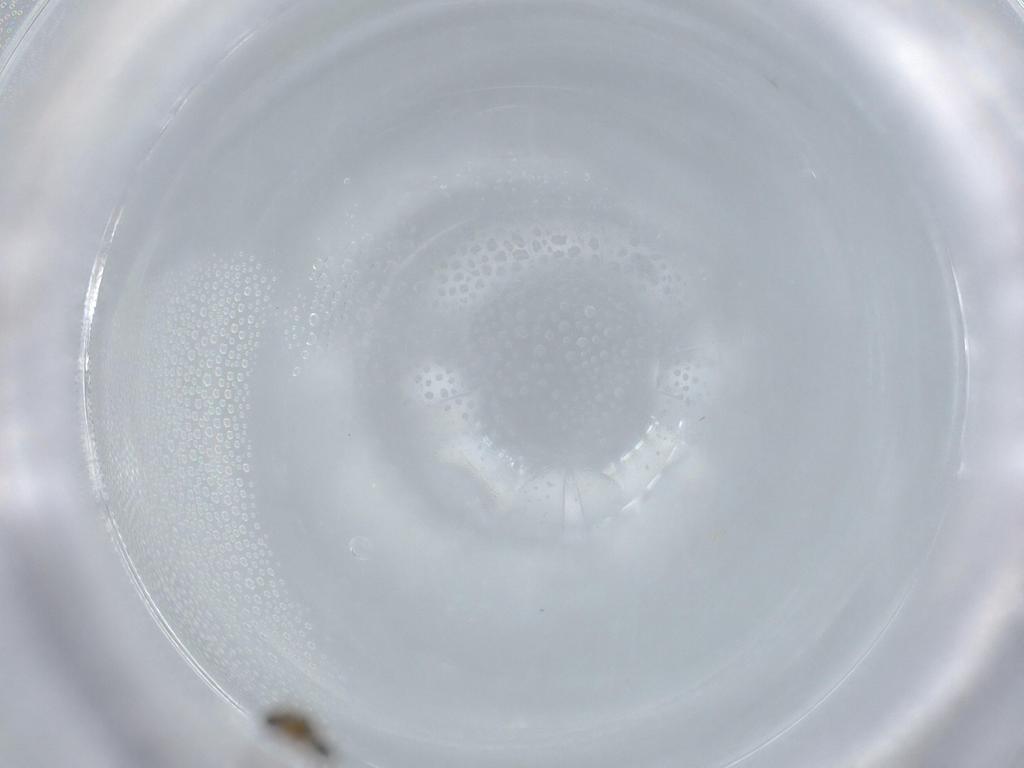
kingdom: Animalia
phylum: Arthropoda
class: Insecta
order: Diptera
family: Chironomidae
